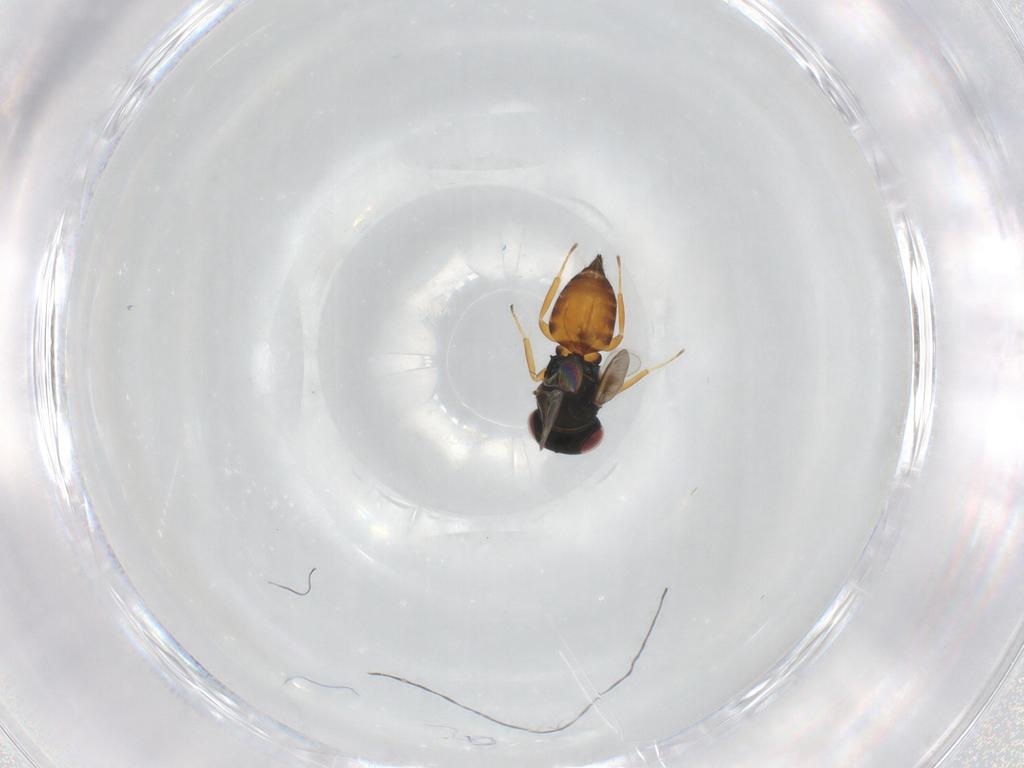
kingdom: Animalia
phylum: Arthropoda
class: Insecta
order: Hymenoptera
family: Pteromalidae
